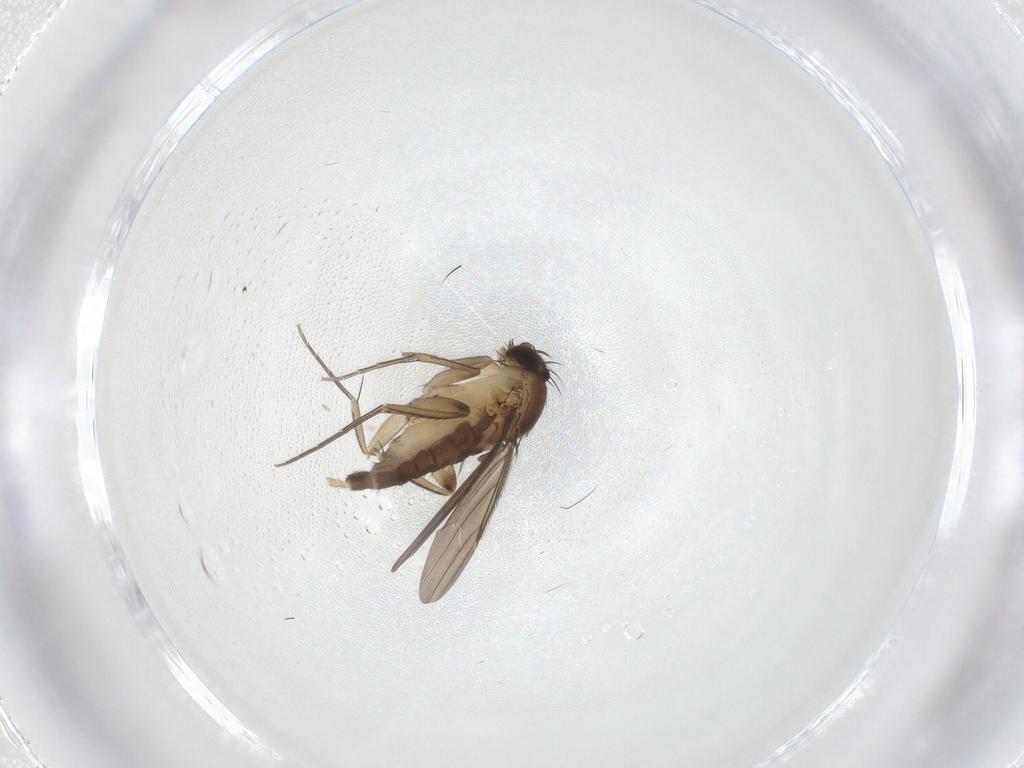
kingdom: Animalia
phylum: Arthropoda
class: Insecta
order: Diptera
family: Phoridae
